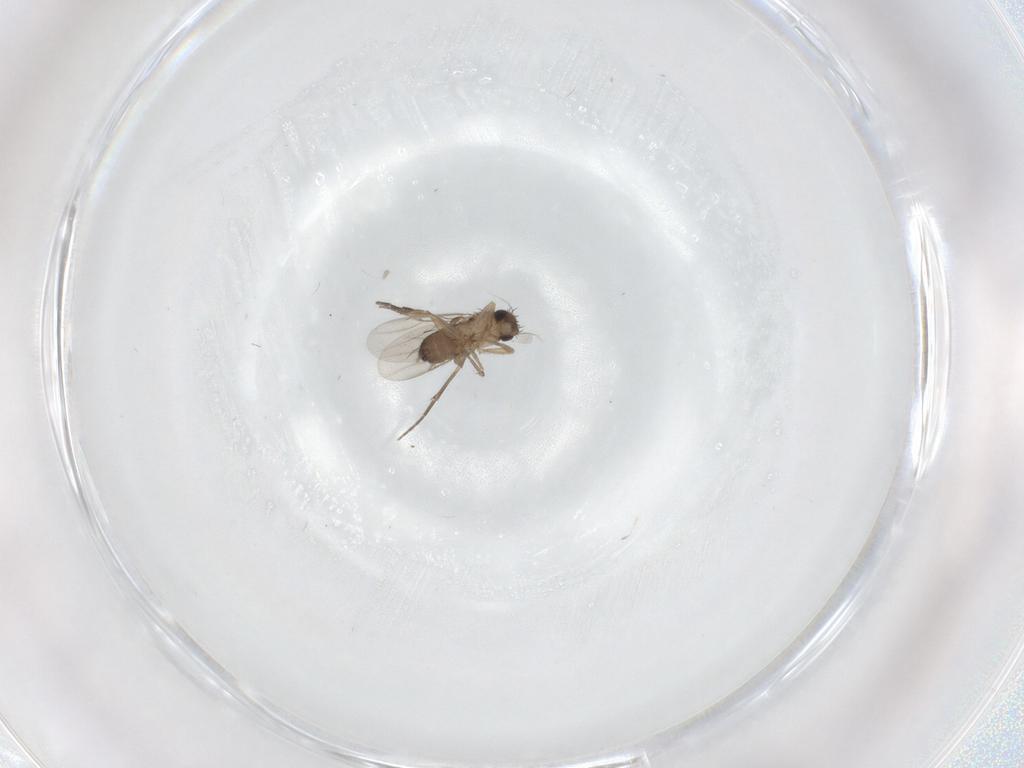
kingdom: Animalia
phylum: Arthropoda
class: Insecta
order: Diptera
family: Phoridae
